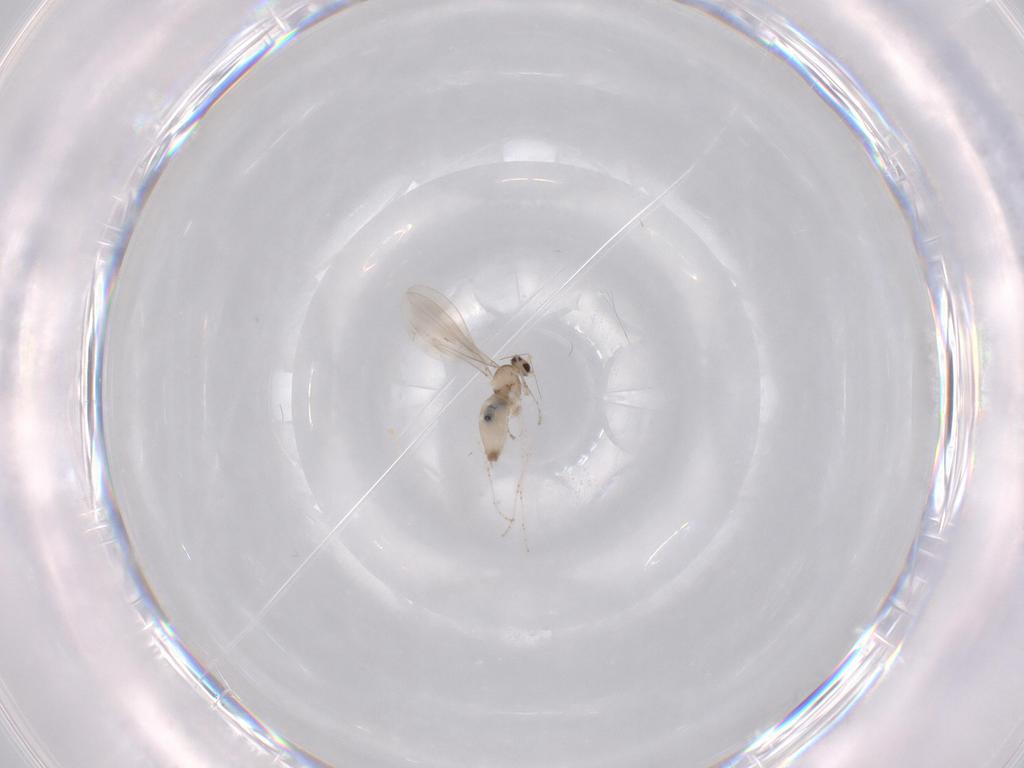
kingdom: Animalia
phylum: Arthropoda
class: Insecta
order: Diptera
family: Cecidomyiidae
